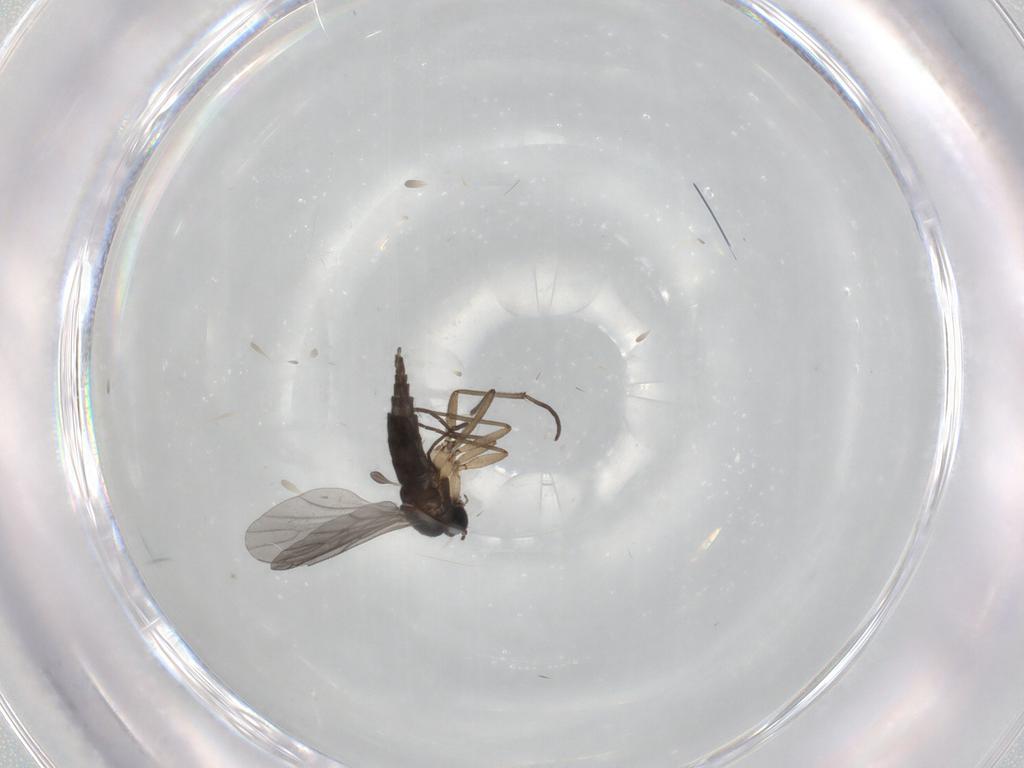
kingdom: Animalia
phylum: Arthropoda
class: Insecta
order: Diptera
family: Sciaridae
